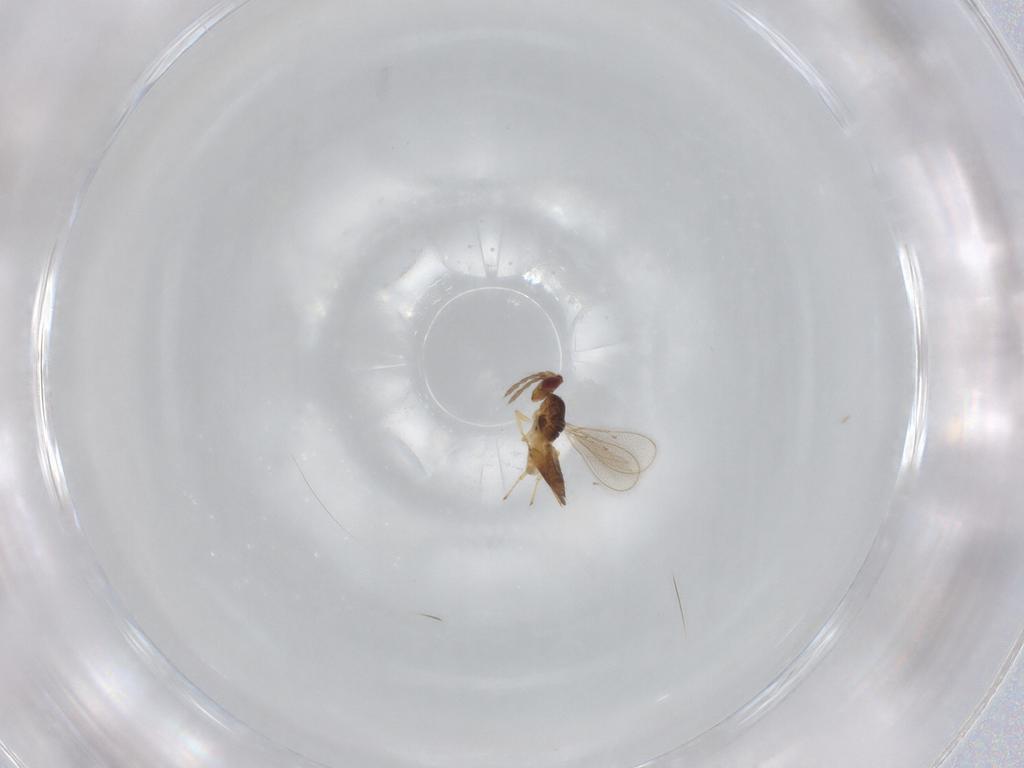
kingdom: Animalia
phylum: Arthropoda
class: Insecta
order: Hymenoptera
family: Eulophidae
